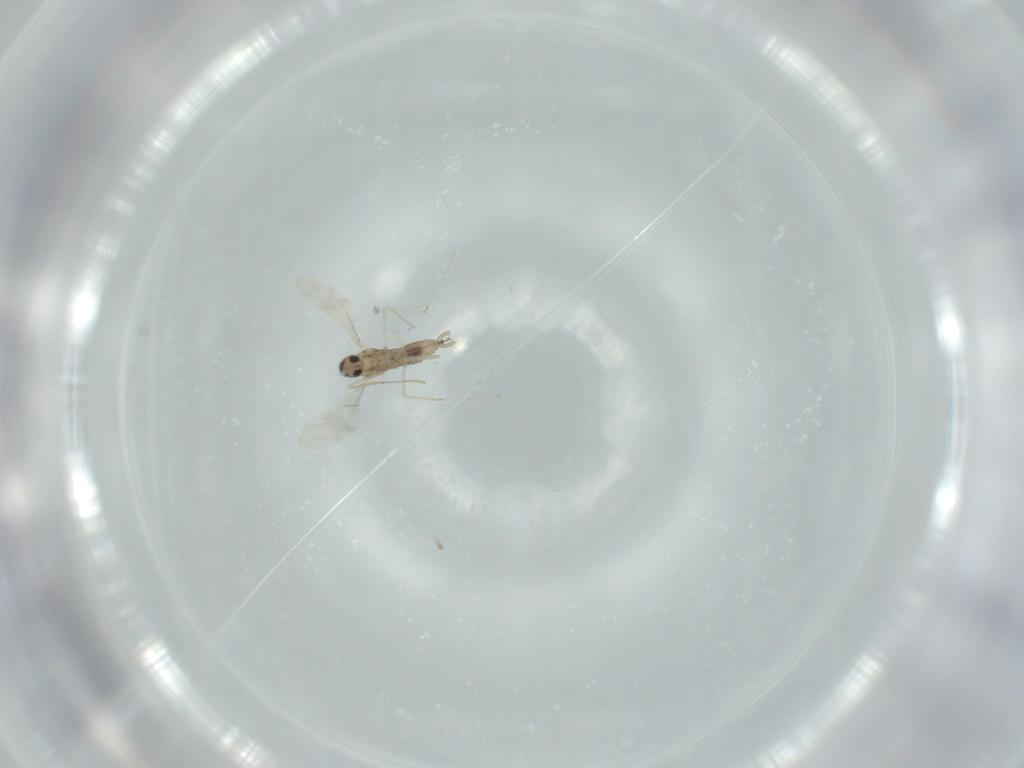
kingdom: Animalia
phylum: Arthropoda
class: Insecta
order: Diptera
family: Cecidomyiidae
